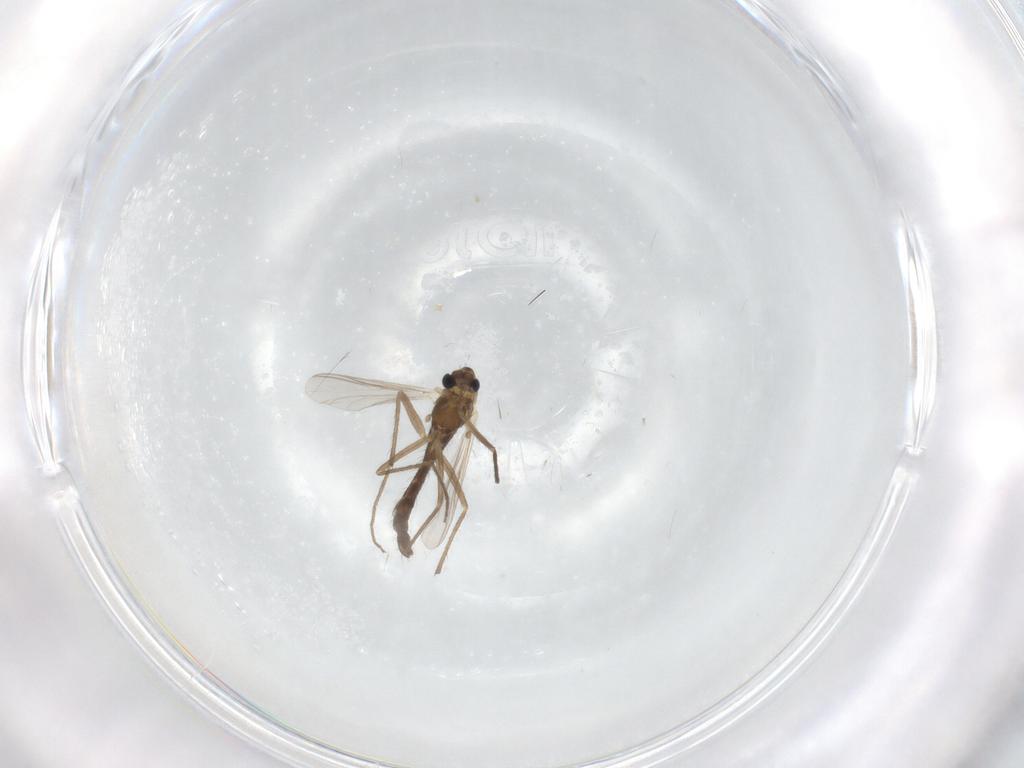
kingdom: Animalia
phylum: Arthropoda
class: Insecta
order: Diptera
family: Chironomidae
